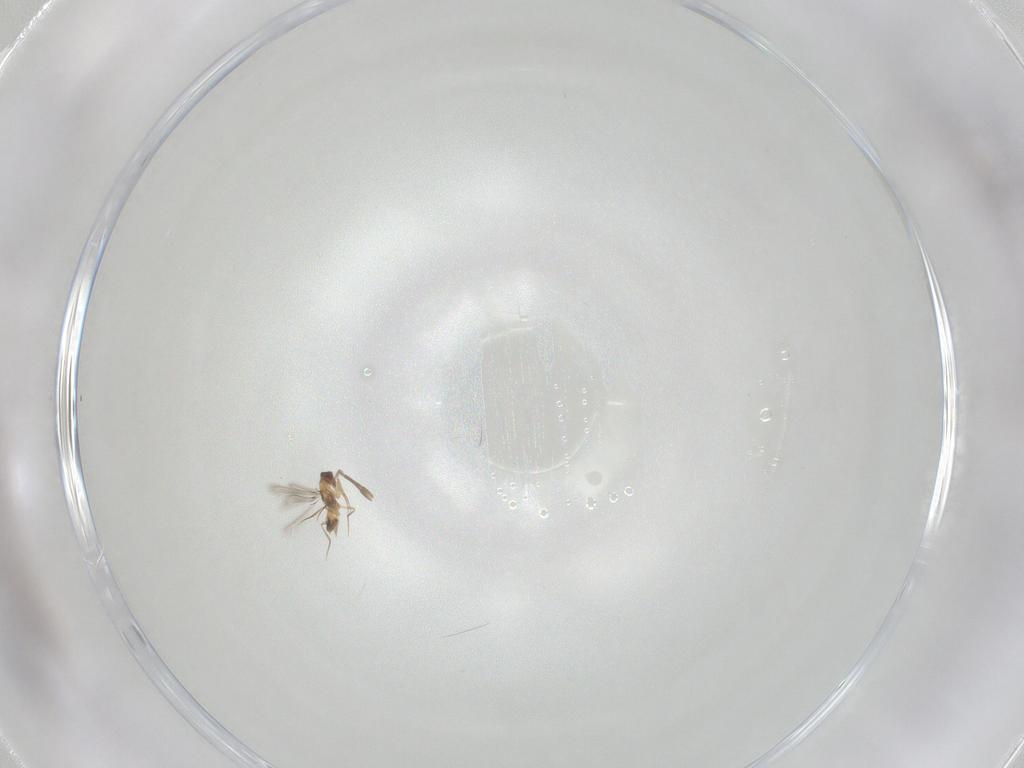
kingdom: Animalia
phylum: Arthropoda
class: Insecta
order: Hymenoptera
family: Mymaridae
